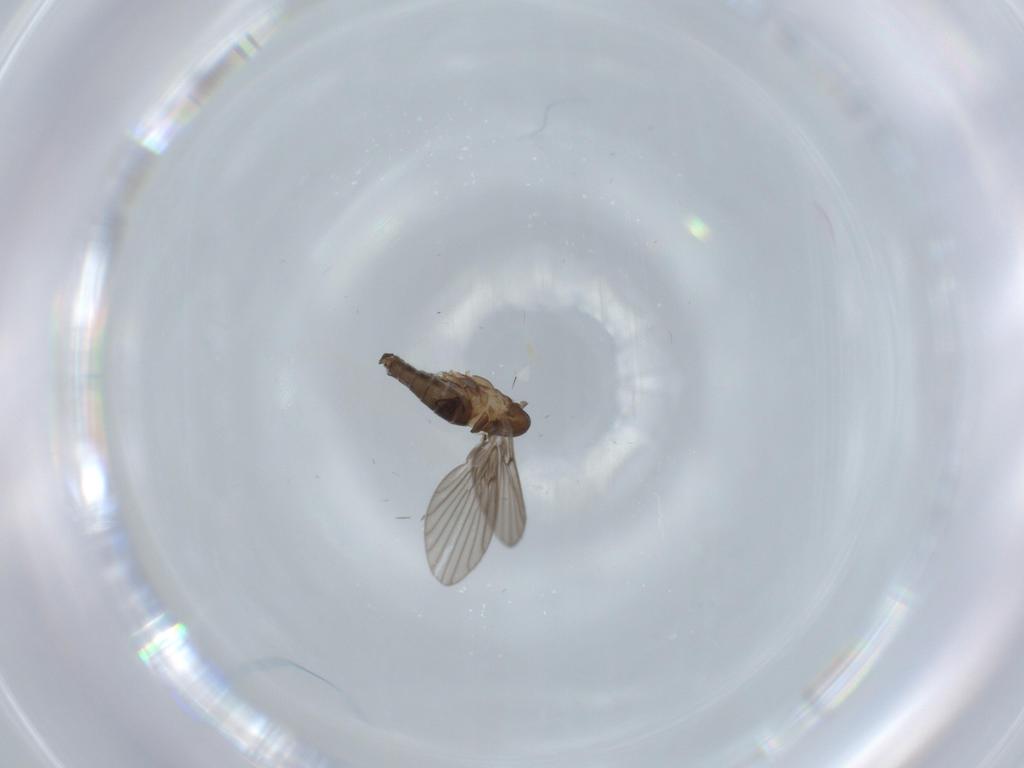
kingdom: Animalia
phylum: Arthropoda
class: Insecta
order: Diptera
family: Psychodidae
